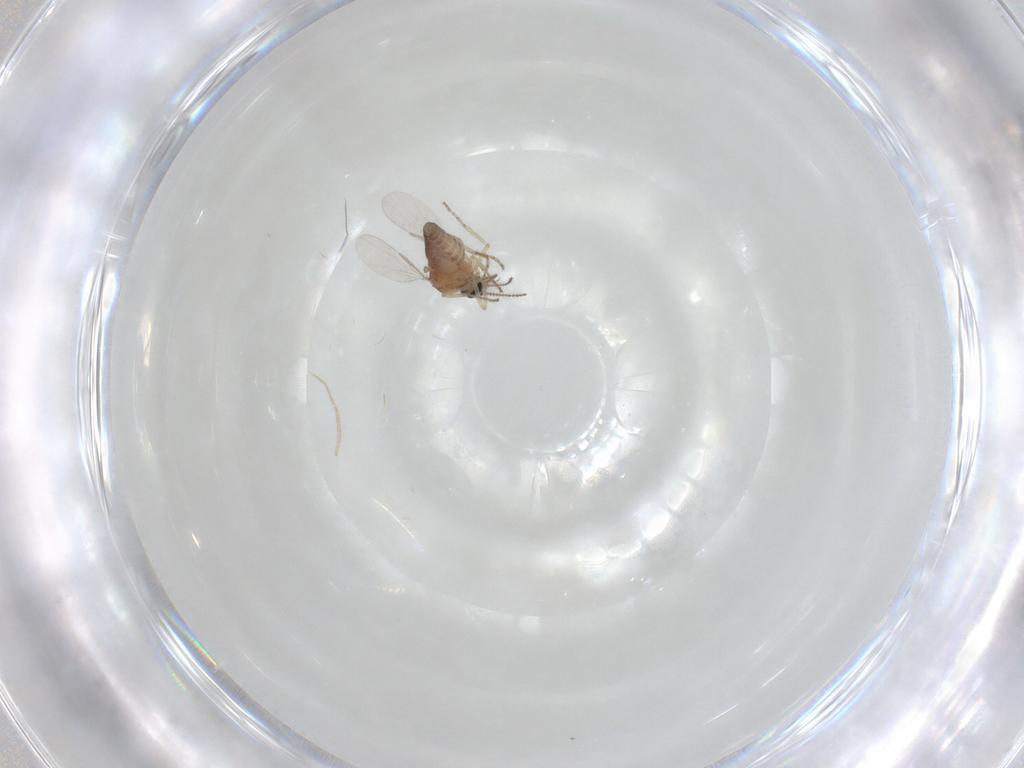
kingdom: Animalia
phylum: Arthropoda
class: Insecta
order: Diptera
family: Ceratopogonidae
